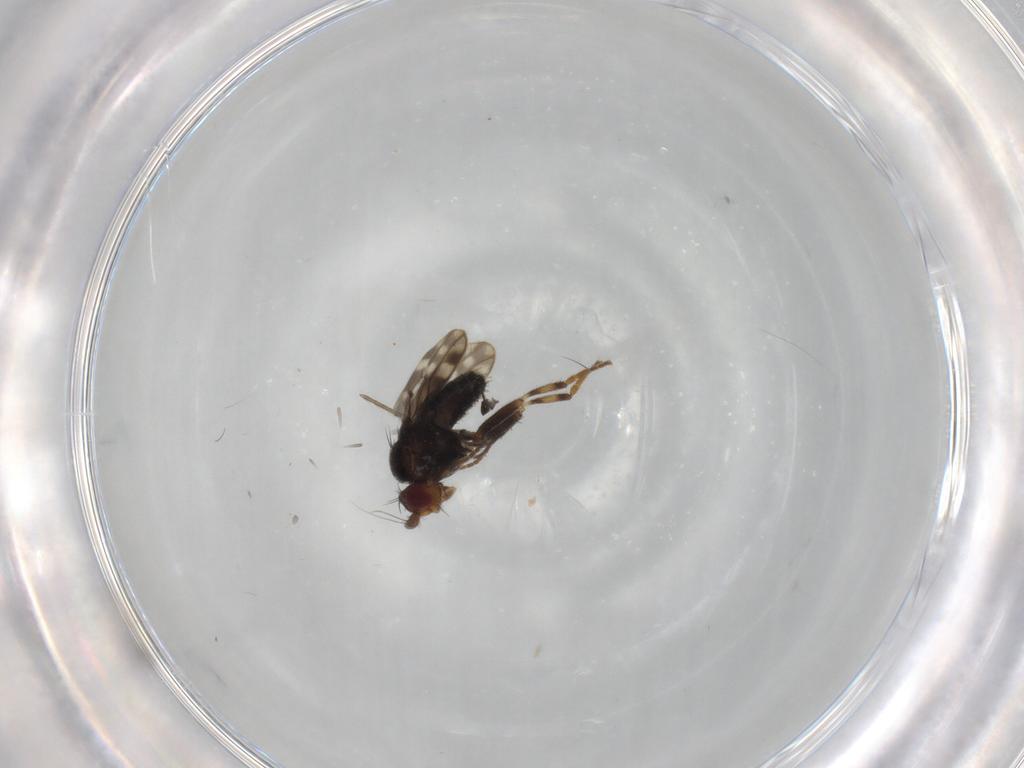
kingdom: Animalia
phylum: Arthropoda
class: Insecta
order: Diptera
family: Sphaeroceridae
